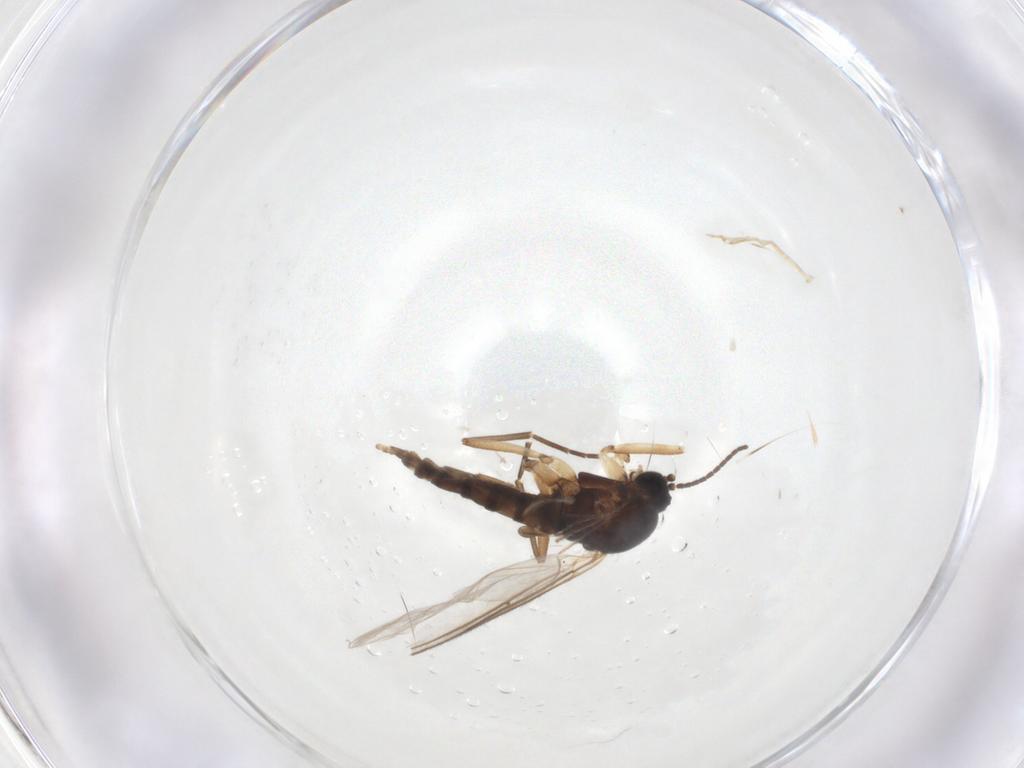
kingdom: Animalia
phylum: Arthropoda
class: Insecta
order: Diptera
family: Sciaridae
